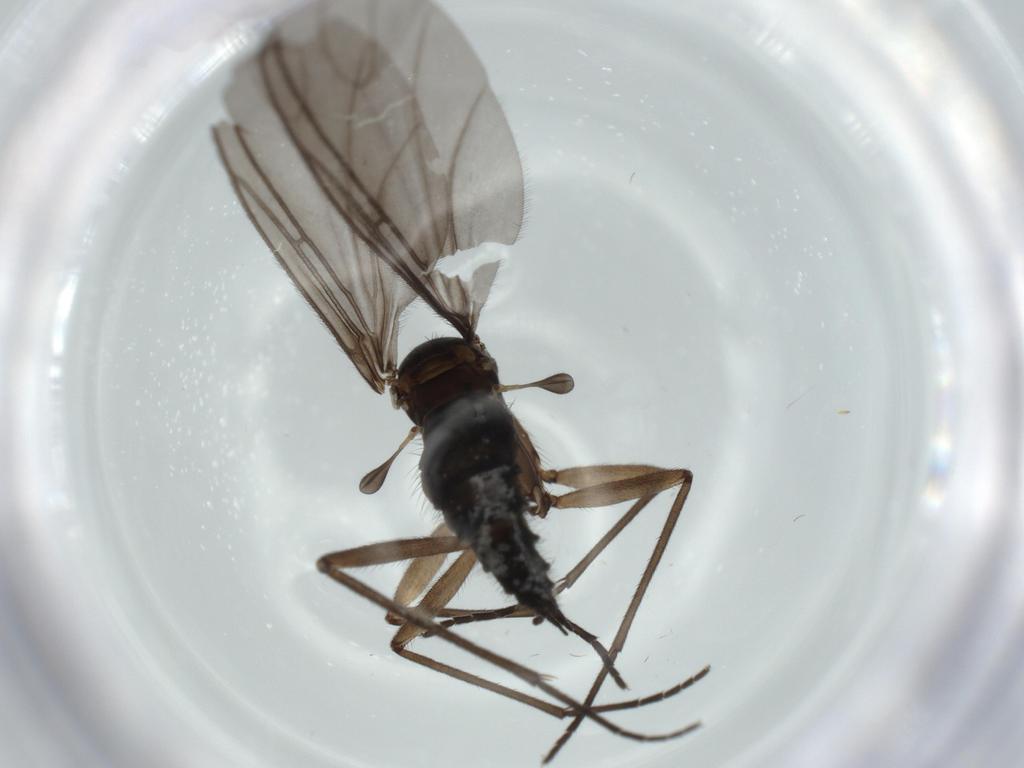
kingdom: Animalia
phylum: Arthropoda
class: Insecta
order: Diptera
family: Sciaridae
